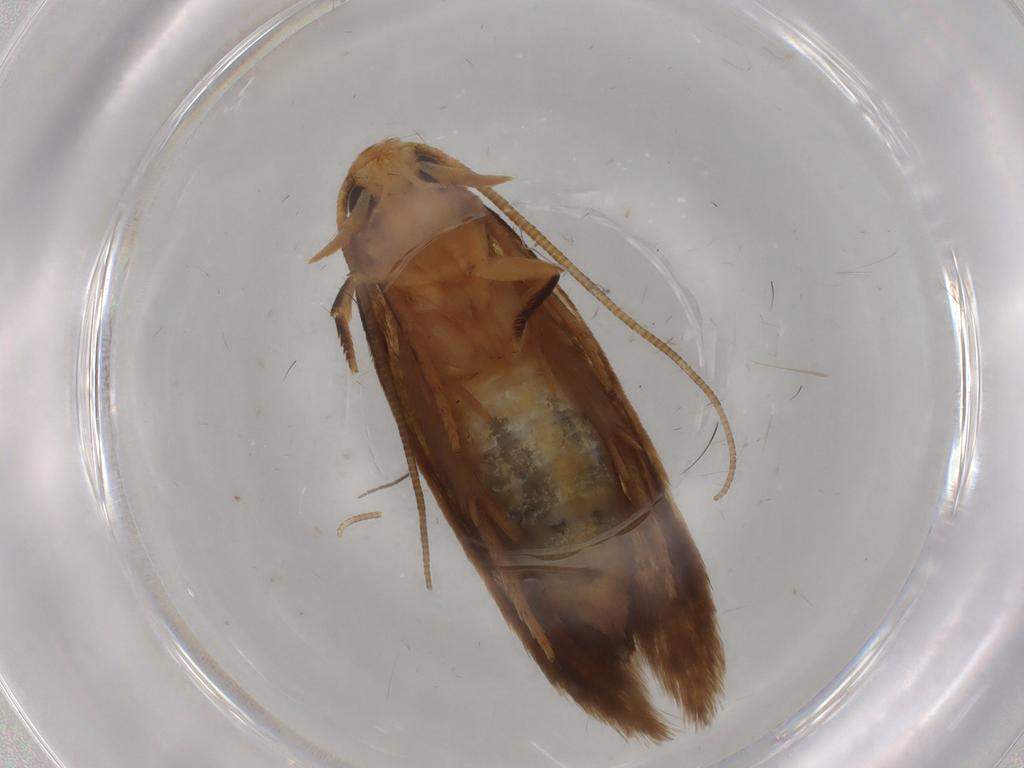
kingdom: Animalia
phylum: Arthropoda
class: Insecta
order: Lepidoptera
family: Tineidae
